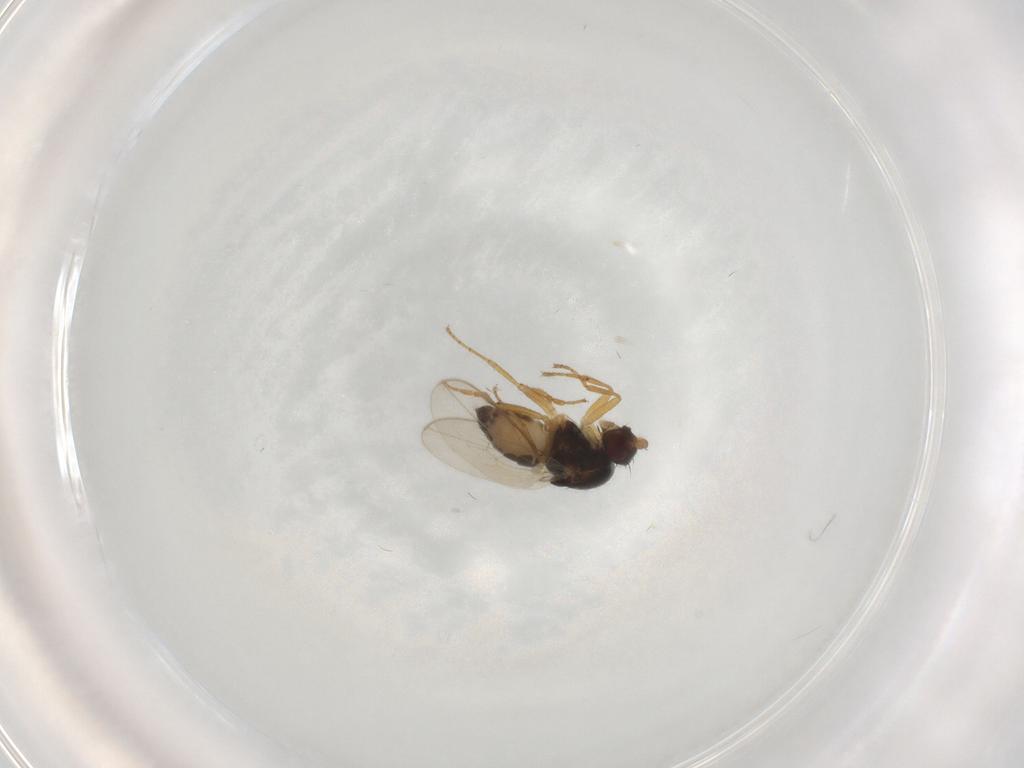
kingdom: Animalia
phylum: Arthropoda
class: Insecta
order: Diptera
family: Sphaeroceridae
